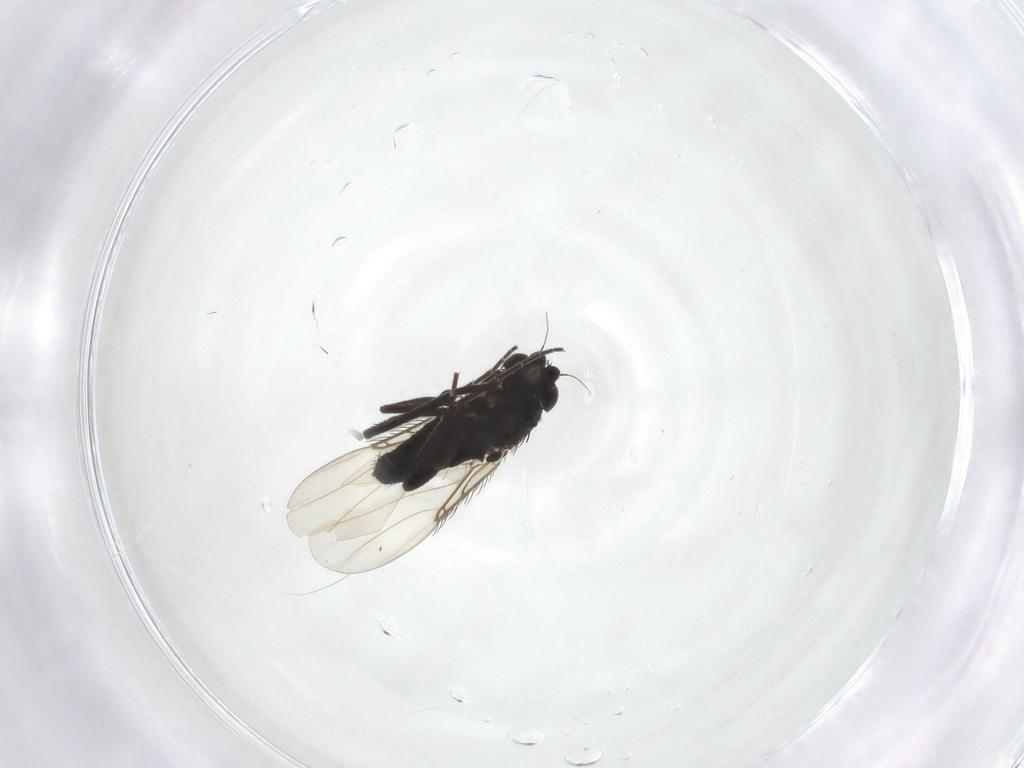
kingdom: Animalia
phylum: Arthropoda
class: Insecta
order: Diptera
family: Phoridae
